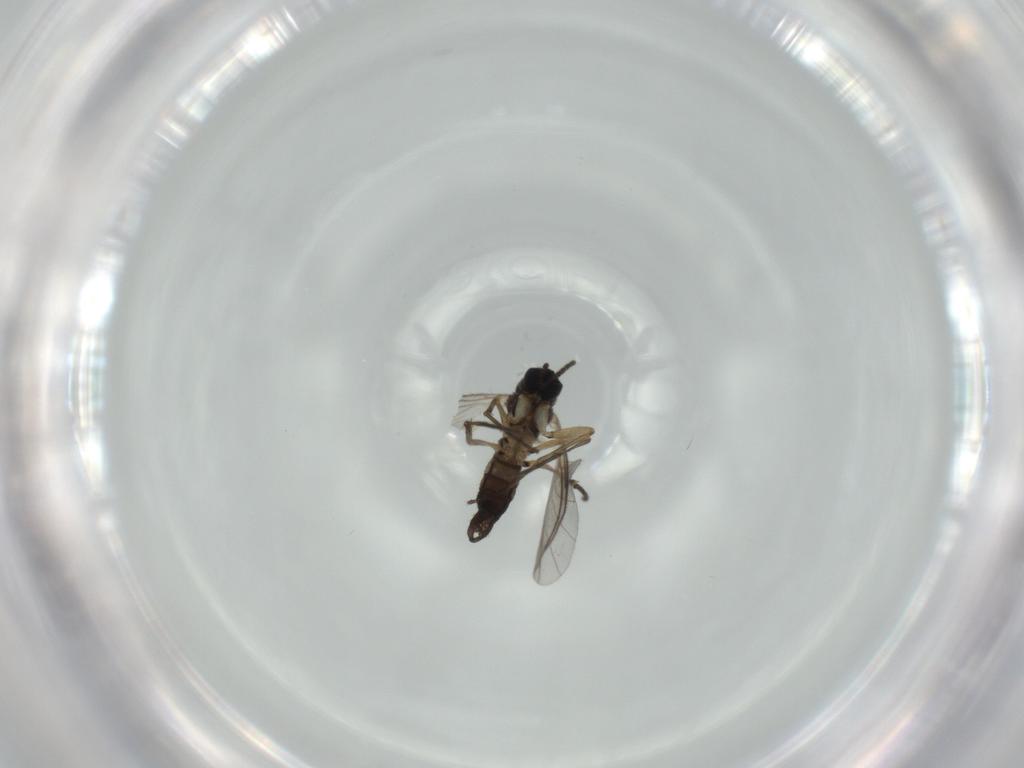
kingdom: Animalia
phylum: Arthropoda
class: Insecta
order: Diptera
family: Sciaridae
